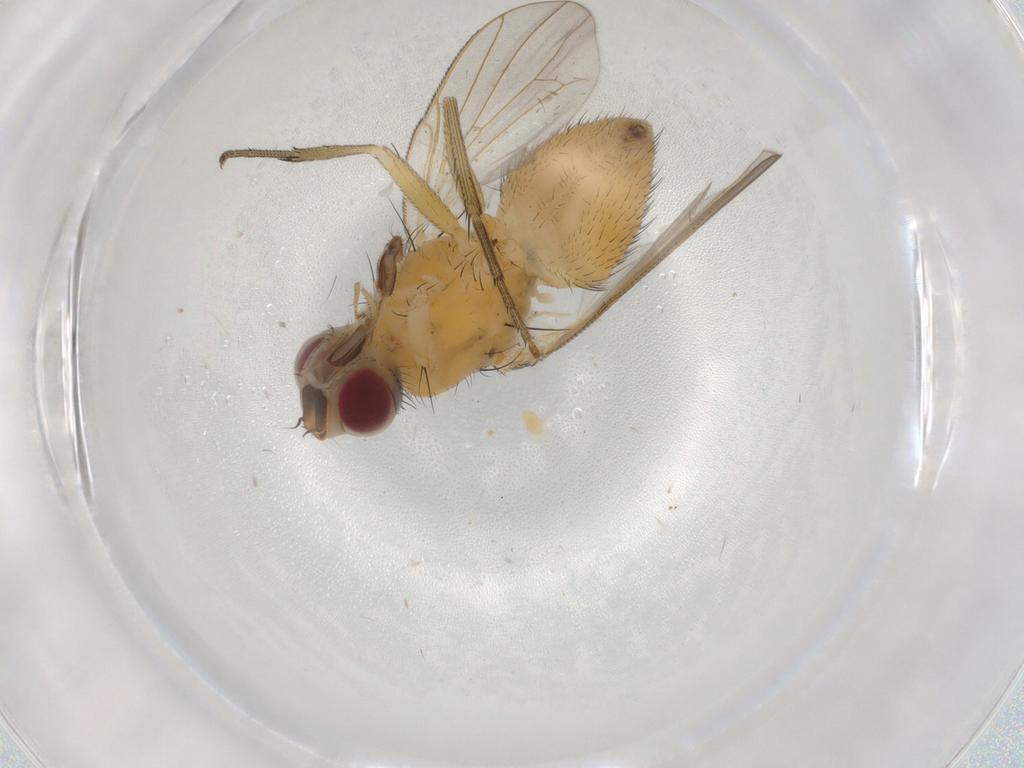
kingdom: Animalia
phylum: Arthropoda
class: Insecta
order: Diptera
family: Muscidae
